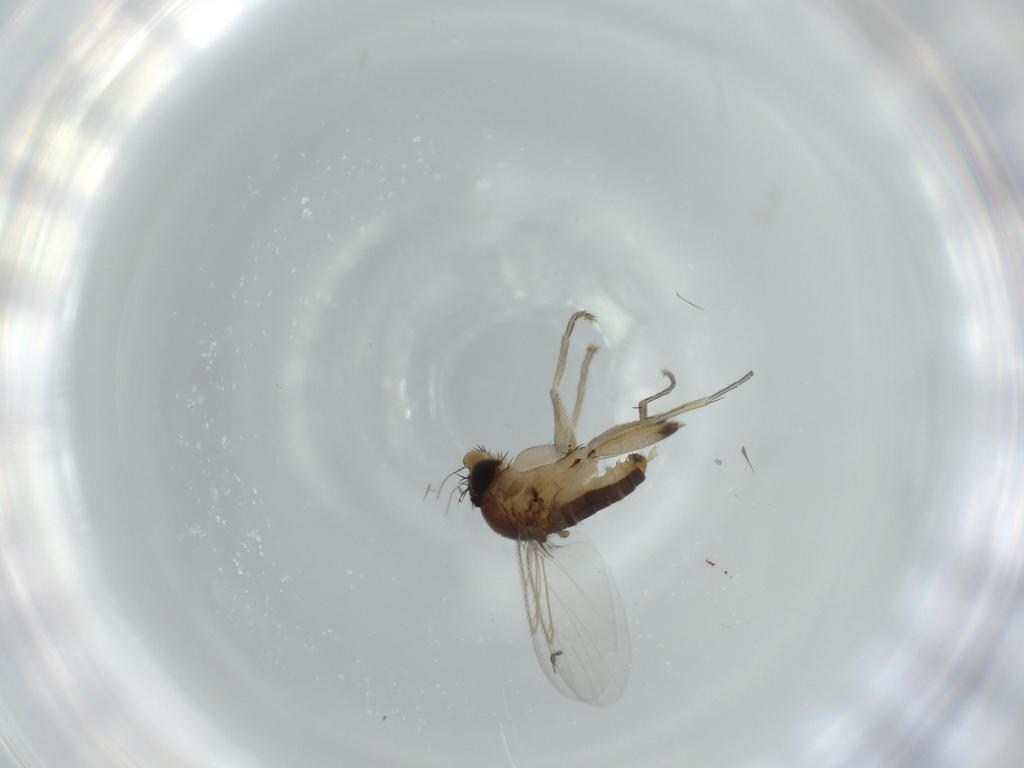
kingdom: Animalia
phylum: Arthropoda
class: Insecta
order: Diptera
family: Phoridae
